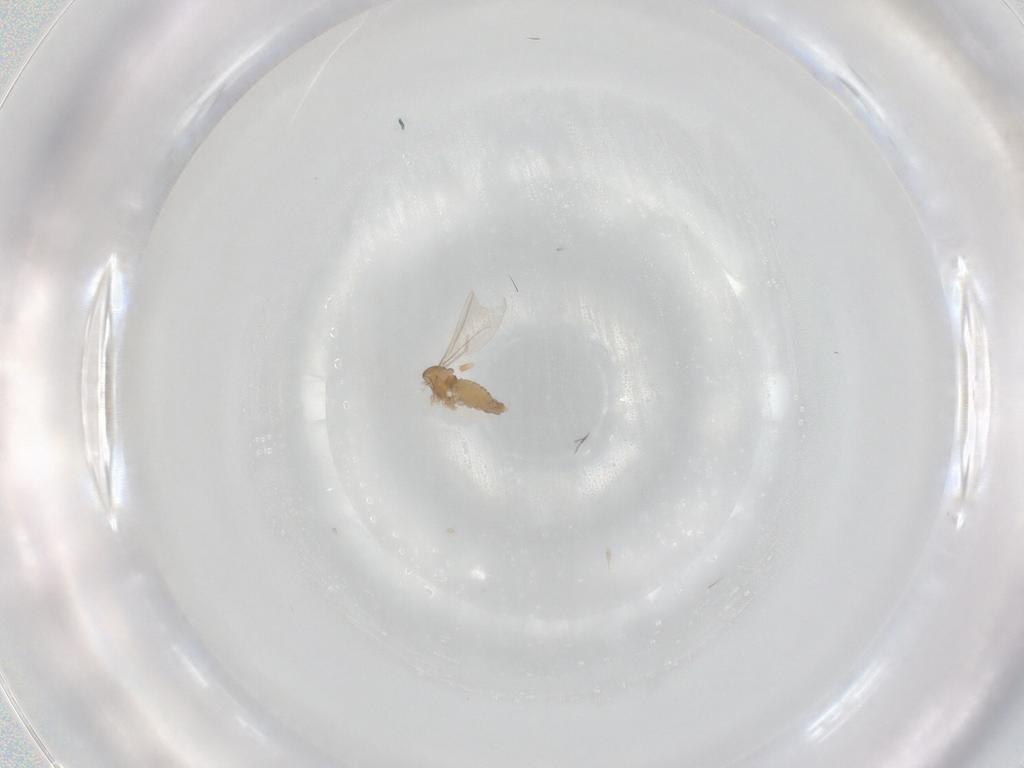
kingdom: Animalia
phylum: Arthropoda
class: Insecta
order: Diptera
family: Cecidomyiidae
